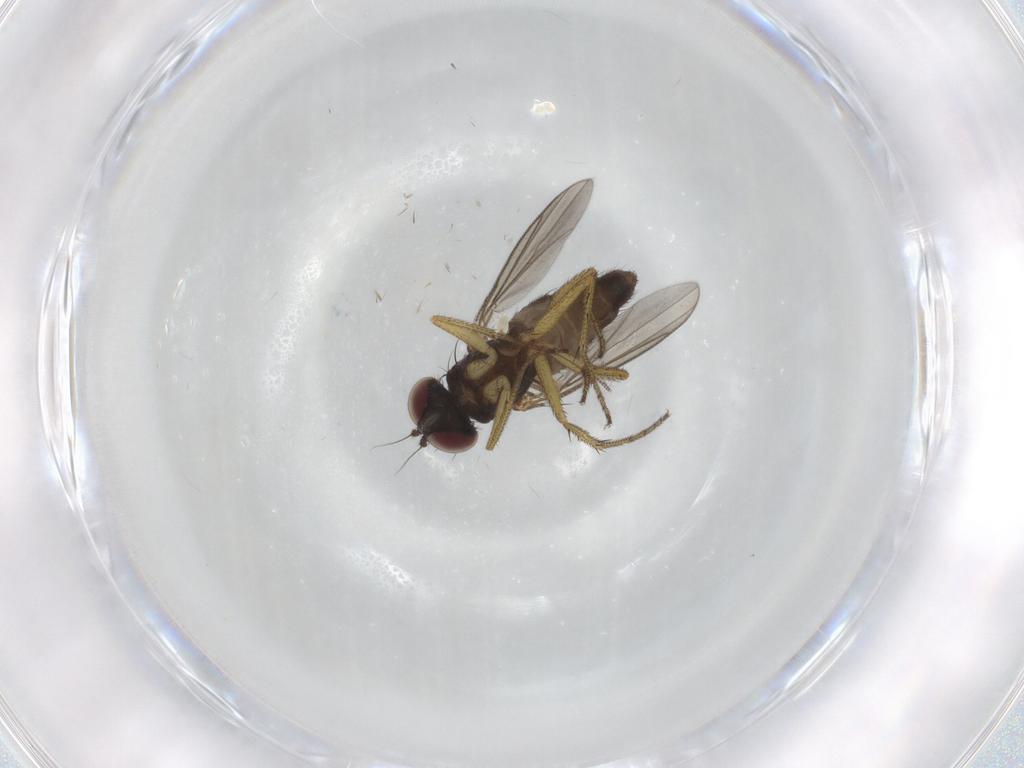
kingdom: Animalia
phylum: Arthropoda
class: Insecta
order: Diptera
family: Chironomidae
